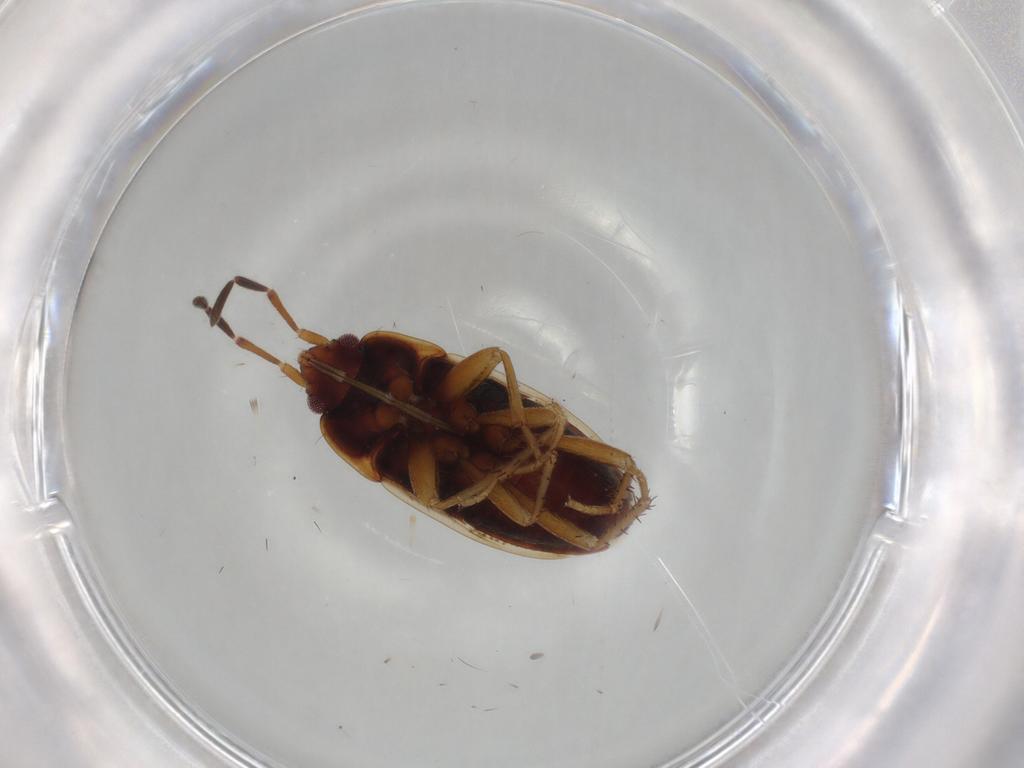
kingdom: Animalia
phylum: Arthropoda
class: Insecta
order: Hemiptera
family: Rhyparochromidae
